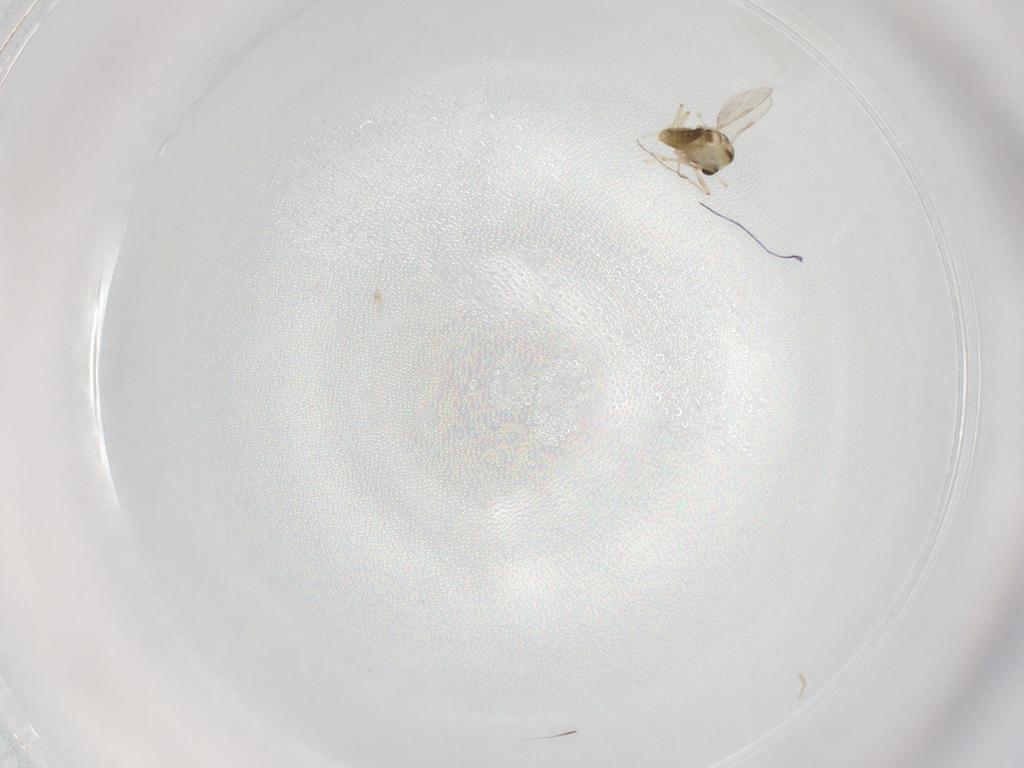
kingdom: Animalia
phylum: Arthropoda
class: Insecta
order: Diptera
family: Chironomidae
